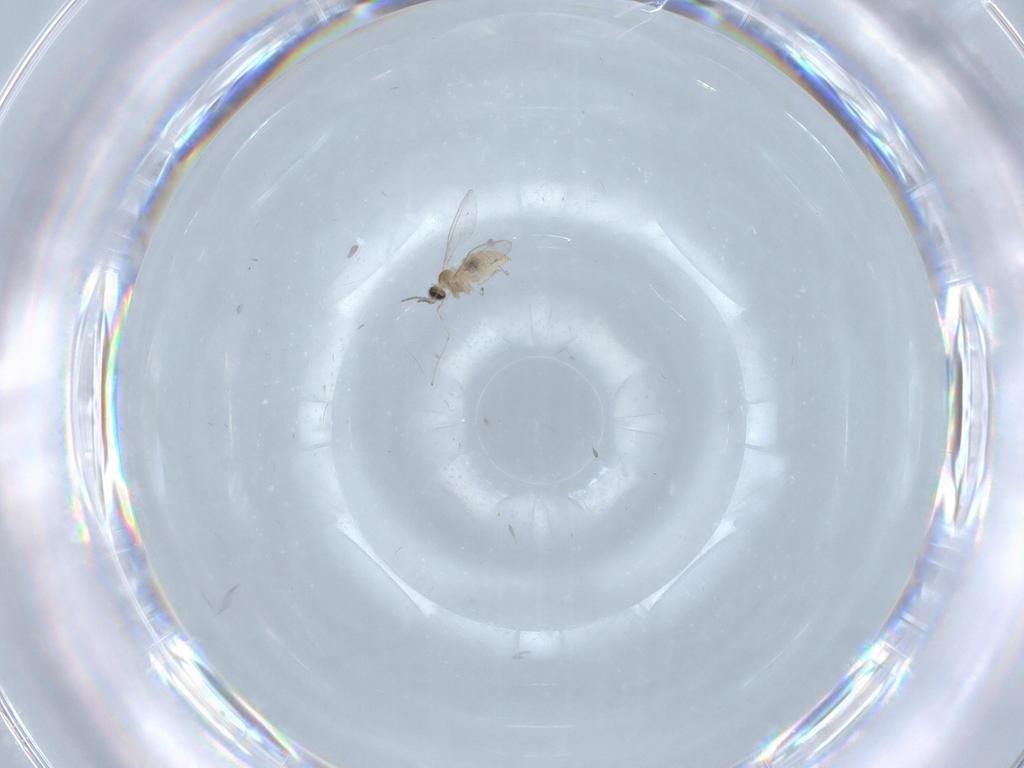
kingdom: Animalia
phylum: Arthropoda
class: Insecta
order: Diptera
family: Cecidomyiidae
